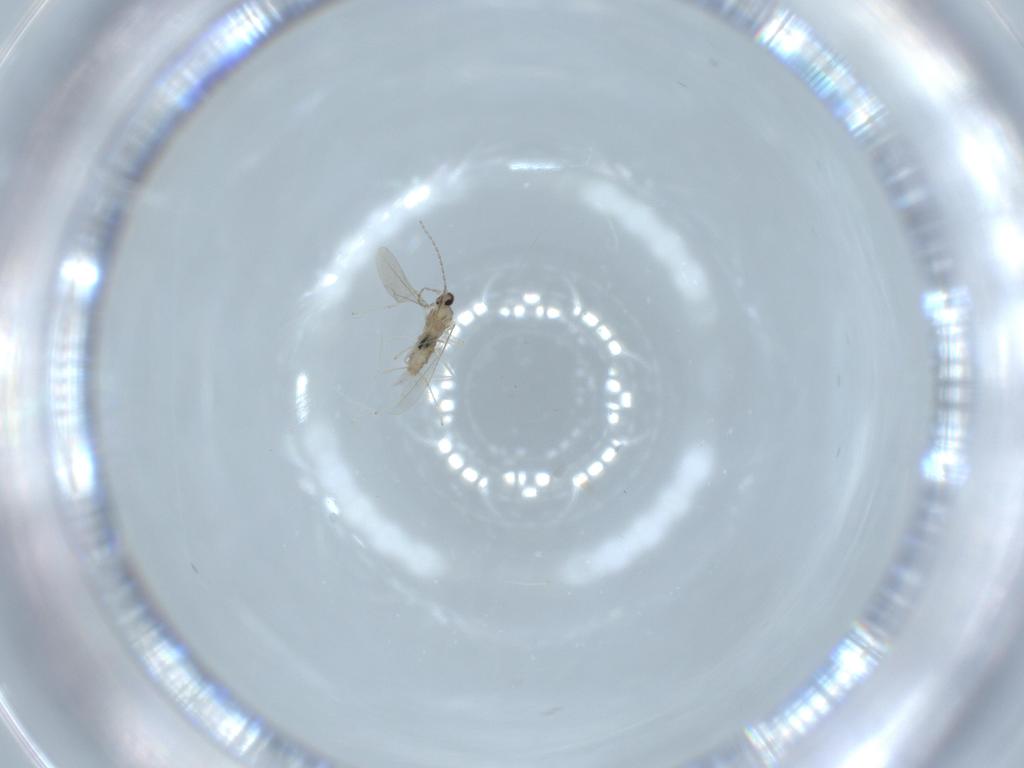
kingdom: Animalia
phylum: Arthropoda
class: Insecta
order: Diptera
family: Cecidomyiidae
